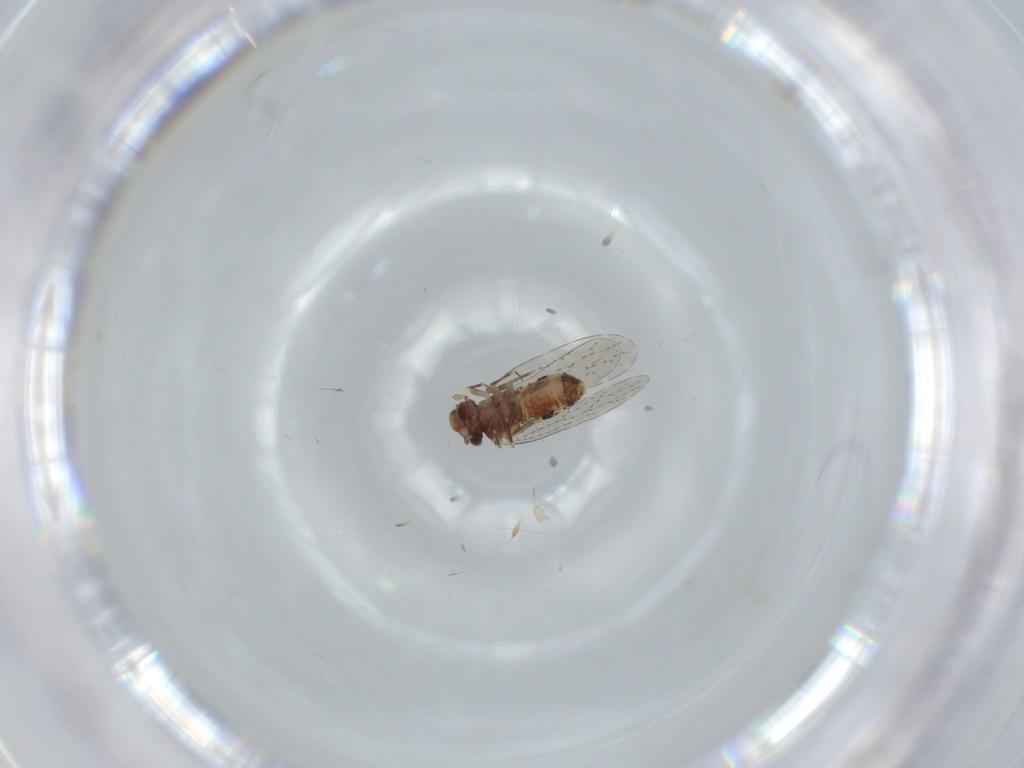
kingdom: Animalia
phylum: Arthropoda
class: Insecta
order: Psocodea
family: Musapsocidae
